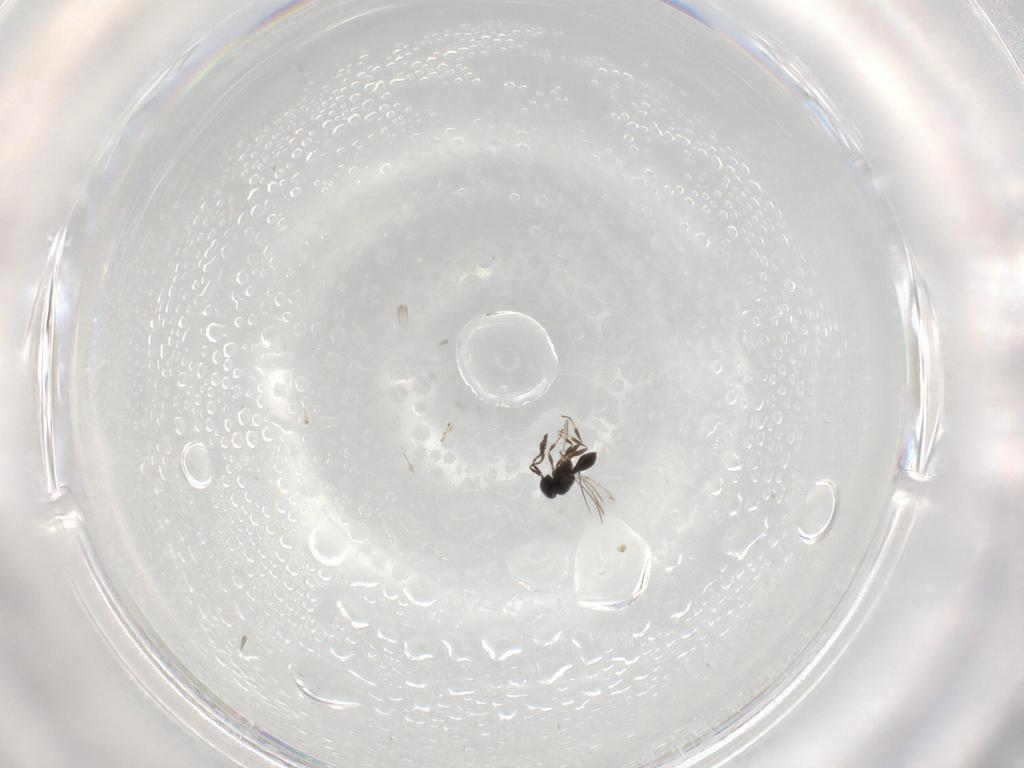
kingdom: Animalia
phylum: Arthropoda
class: Insecta
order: Hymenoptera
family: Scelionidae
